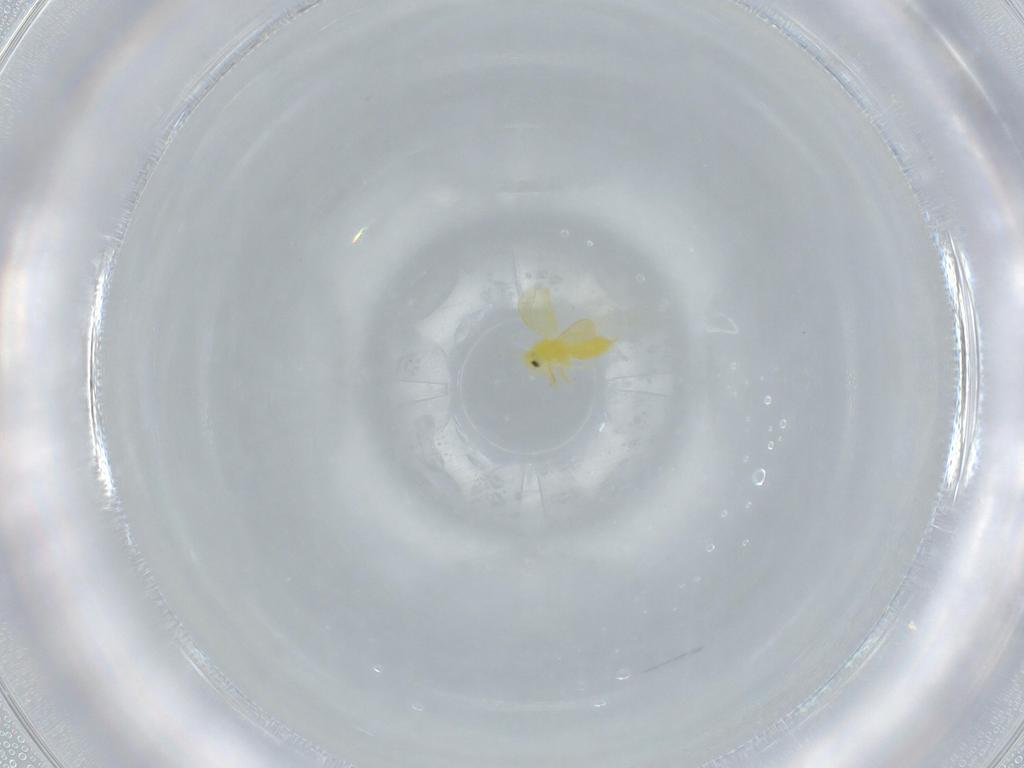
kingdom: Animalia
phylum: Arthropoda
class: Insecta
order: Hemiptera
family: Aleyrodidae
